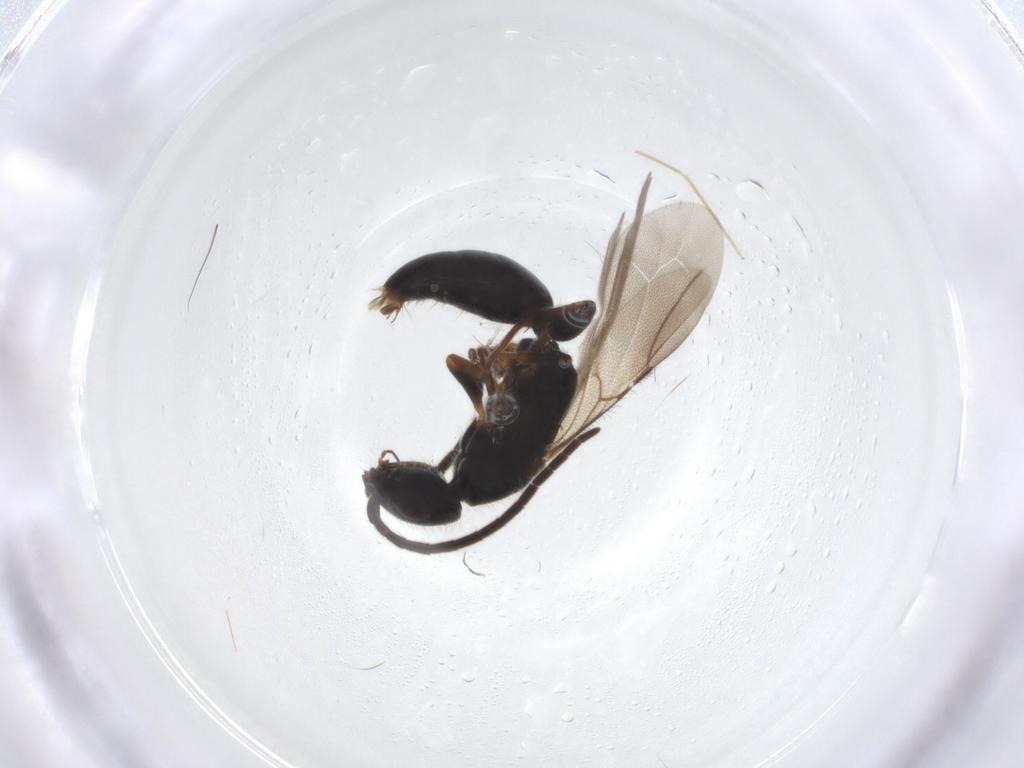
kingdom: Animalia
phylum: Arthropoda
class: Insecta
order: Hymenoptera
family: Bethylidae
